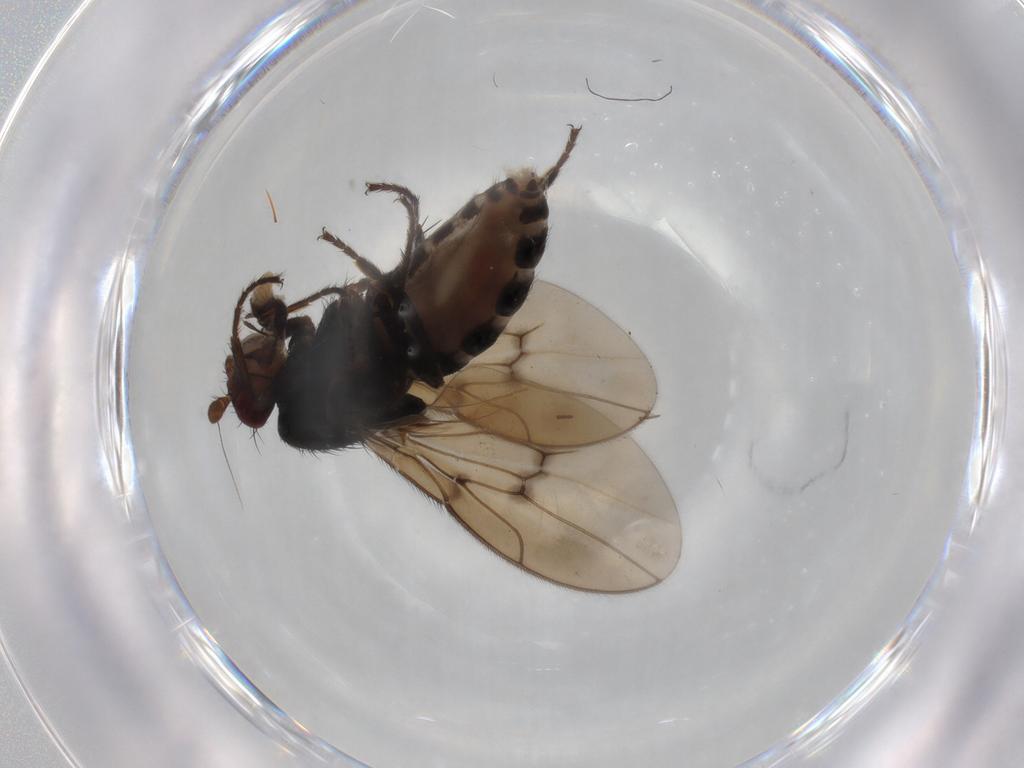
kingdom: Animalia
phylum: Arthropoda
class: Insecta
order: Diptera
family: Sphaeroceridae
